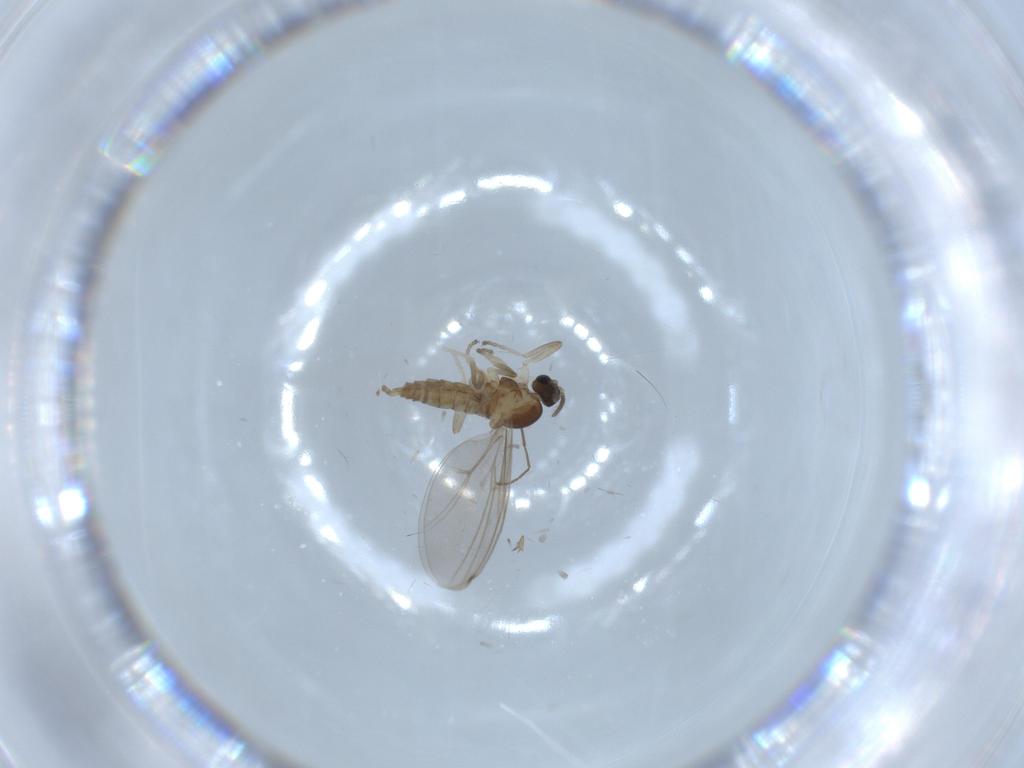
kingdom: Animalia
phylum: Arthropoda
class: Insecta
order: Diptera
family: Chironomidae
